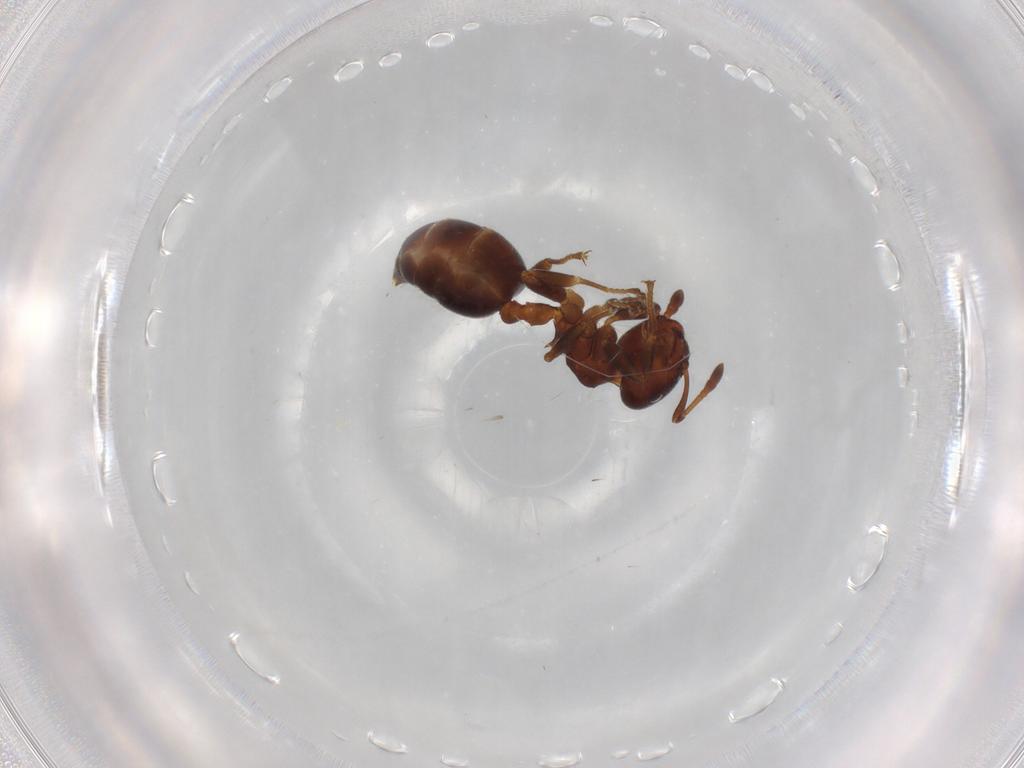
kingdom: Animalia
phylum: Arthropoda
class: Insecta
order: Hymenoptera
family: Formicidae
